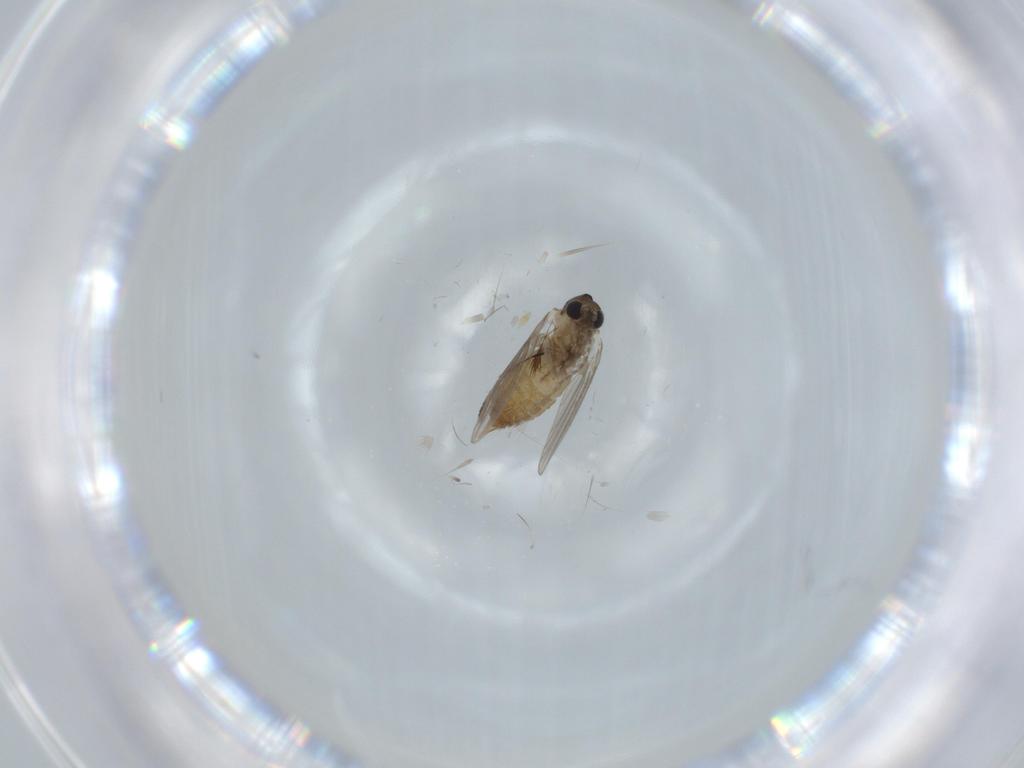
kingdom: Animalia
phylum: Arthropoda
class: Insecta
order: Diptera
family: Psychodidae
